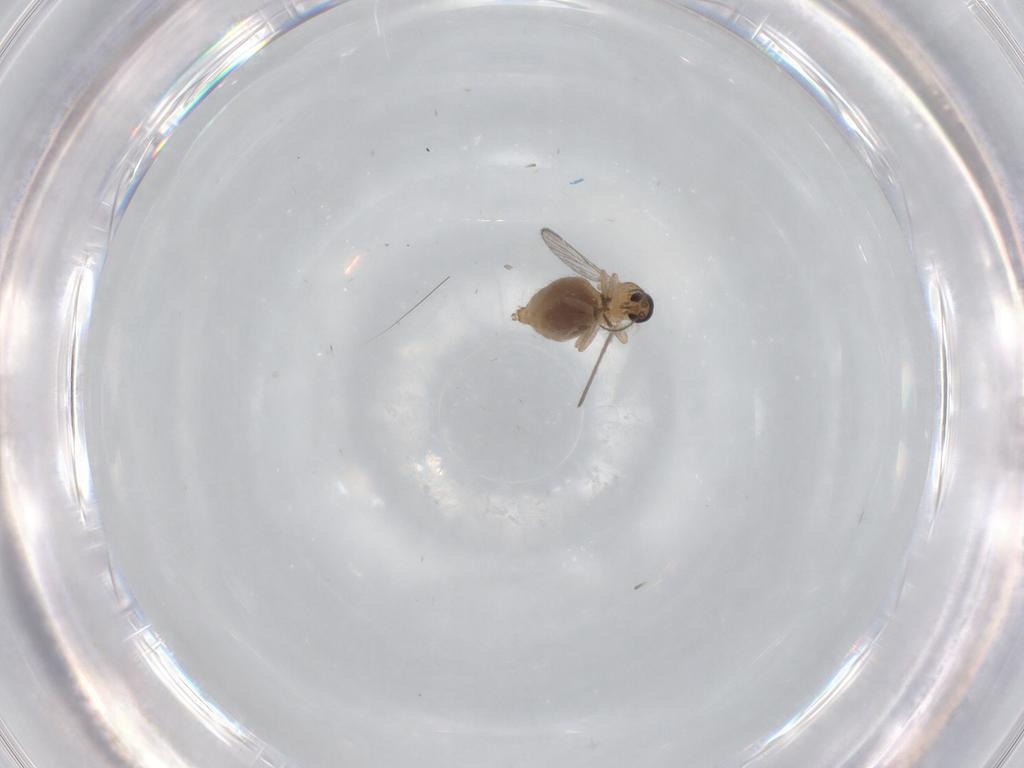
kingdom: Animalia
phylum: Arthropoda
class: Insecta
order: Diptera
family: Ceratopogonidae
